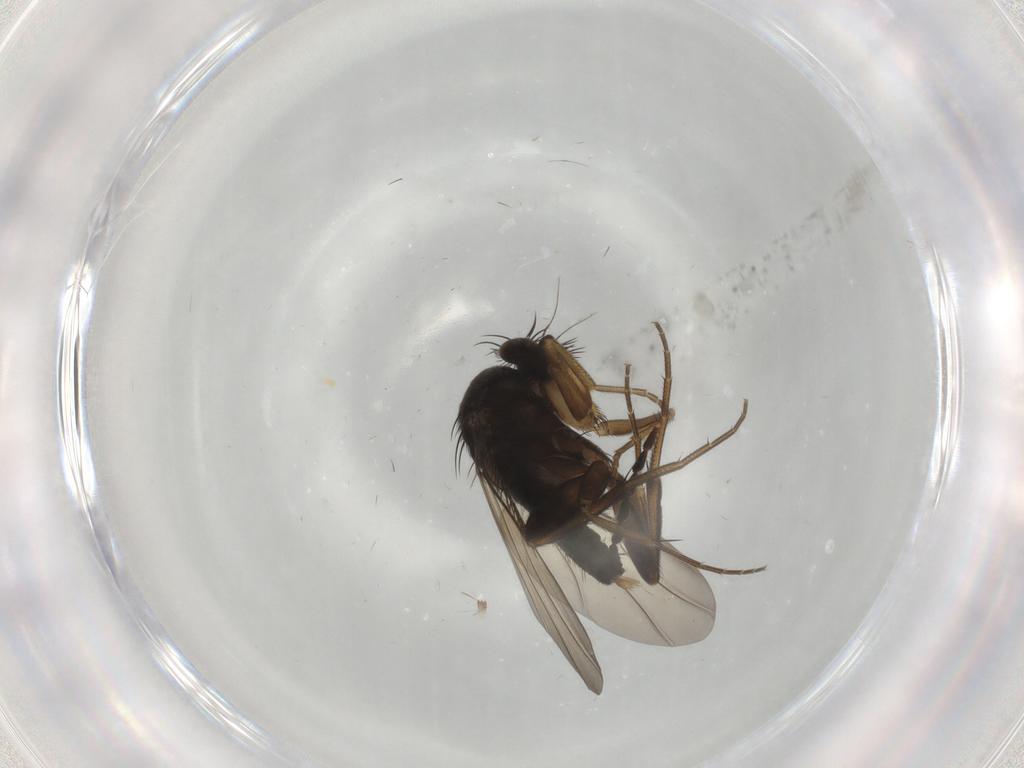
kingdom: Animalia
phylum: Arthropoda
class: Insecta
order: Diptera
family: Phoridae
